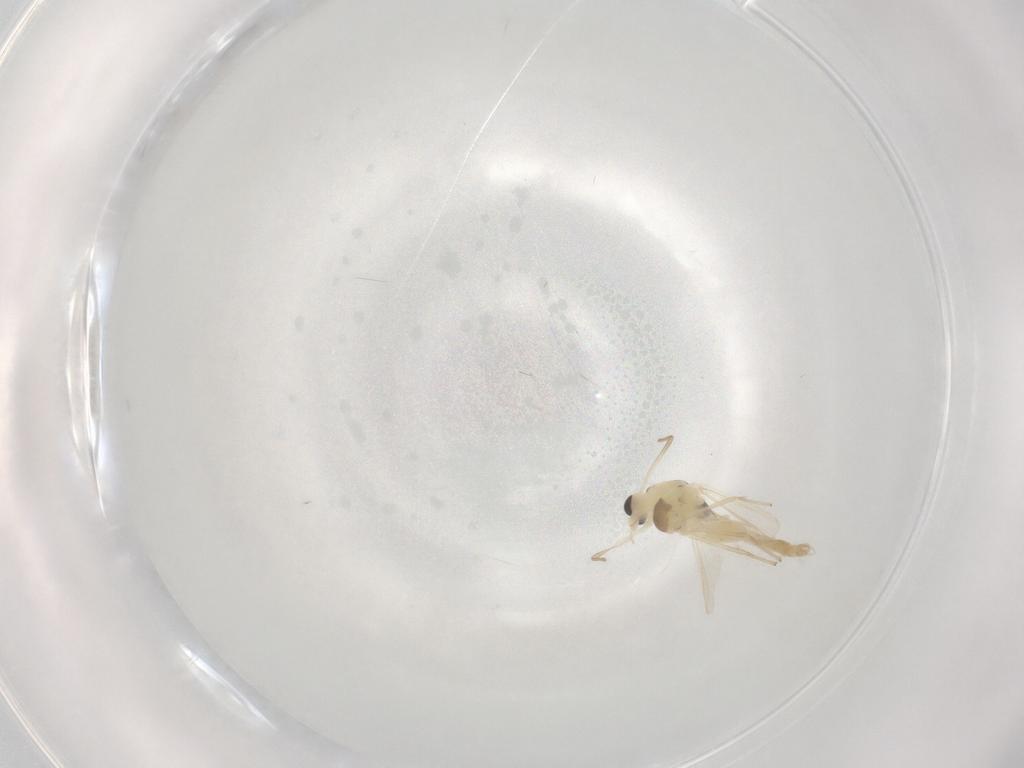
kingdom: Animalia
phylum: Arthropoda
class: Insecta
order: Diptera
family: Chironomidae
